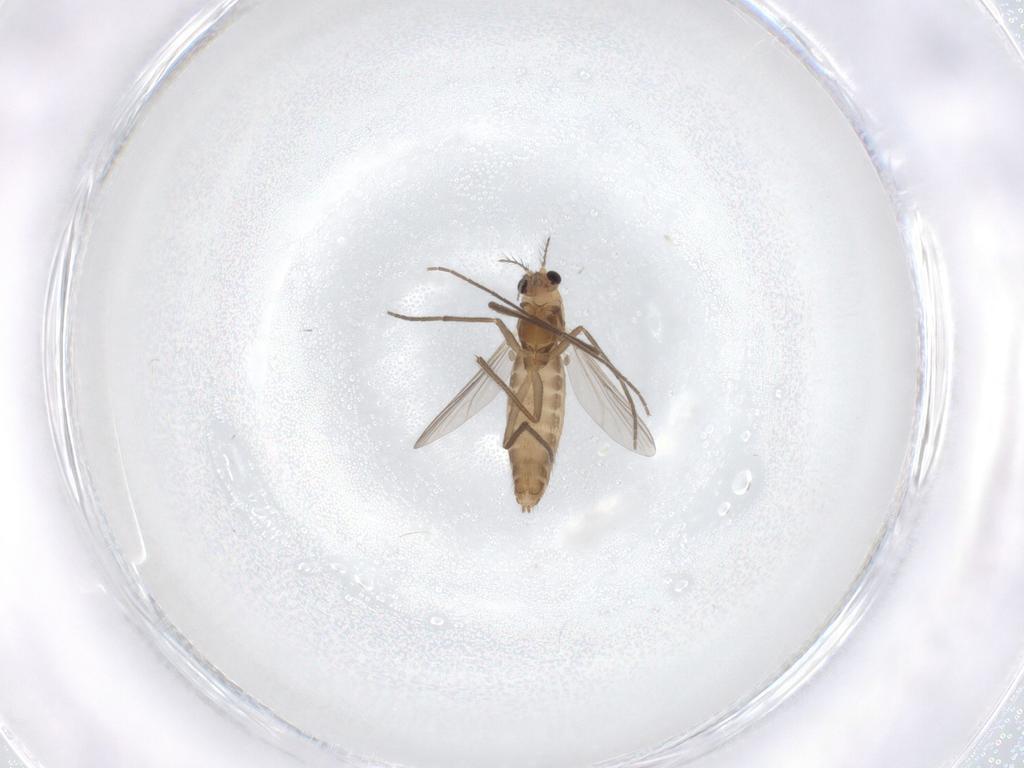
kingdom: Animalia
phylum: Arthropoda
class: Insecta
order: Diptera
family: Chironomidae
